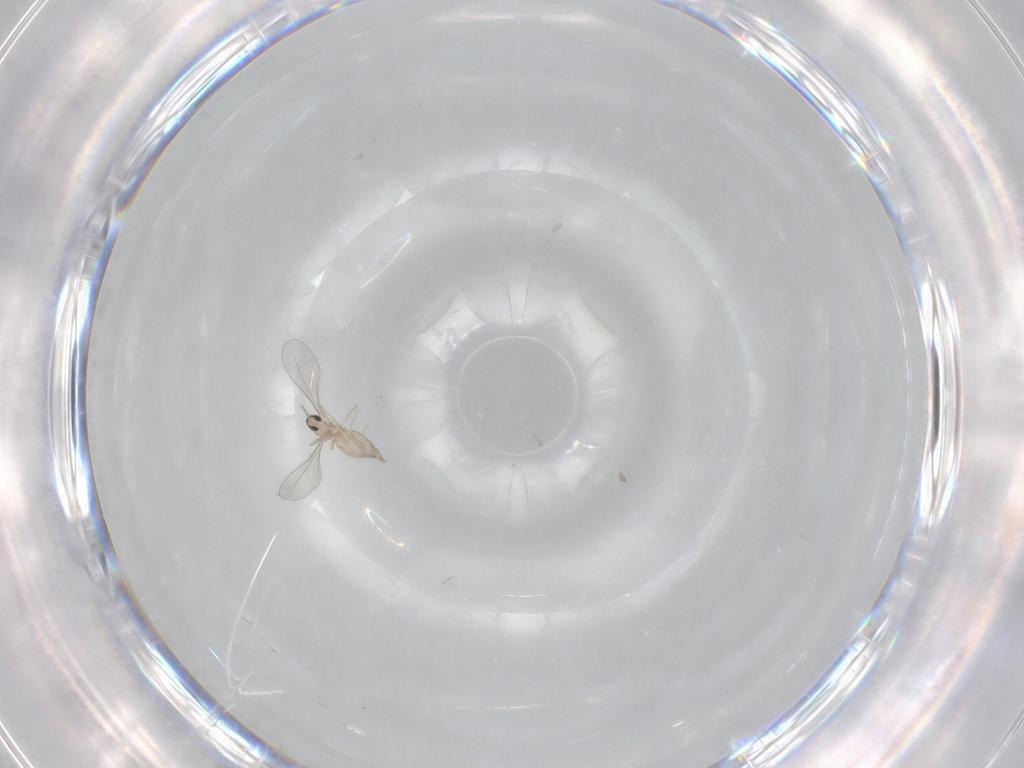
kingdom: Animalia
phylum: Arthropoda
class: Insecta
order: Diptera
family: Cecidomyiidae
